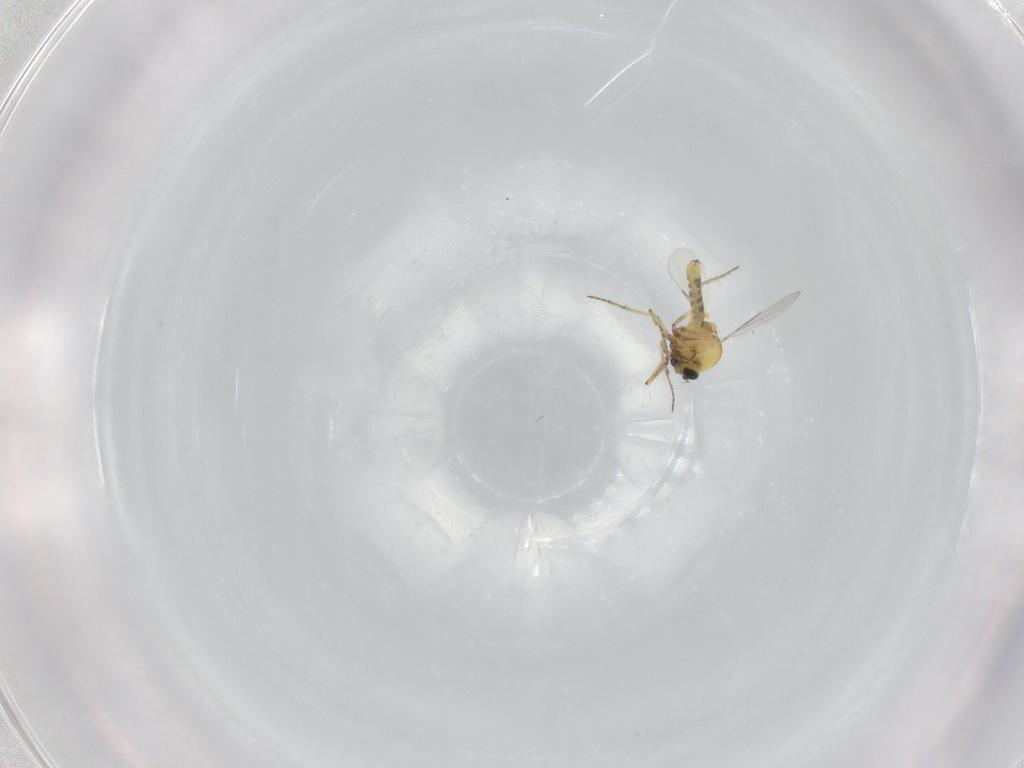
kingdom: Animalia
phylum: Arthropoda
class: Insecta
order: Diptera
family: Ceratopogonidae
